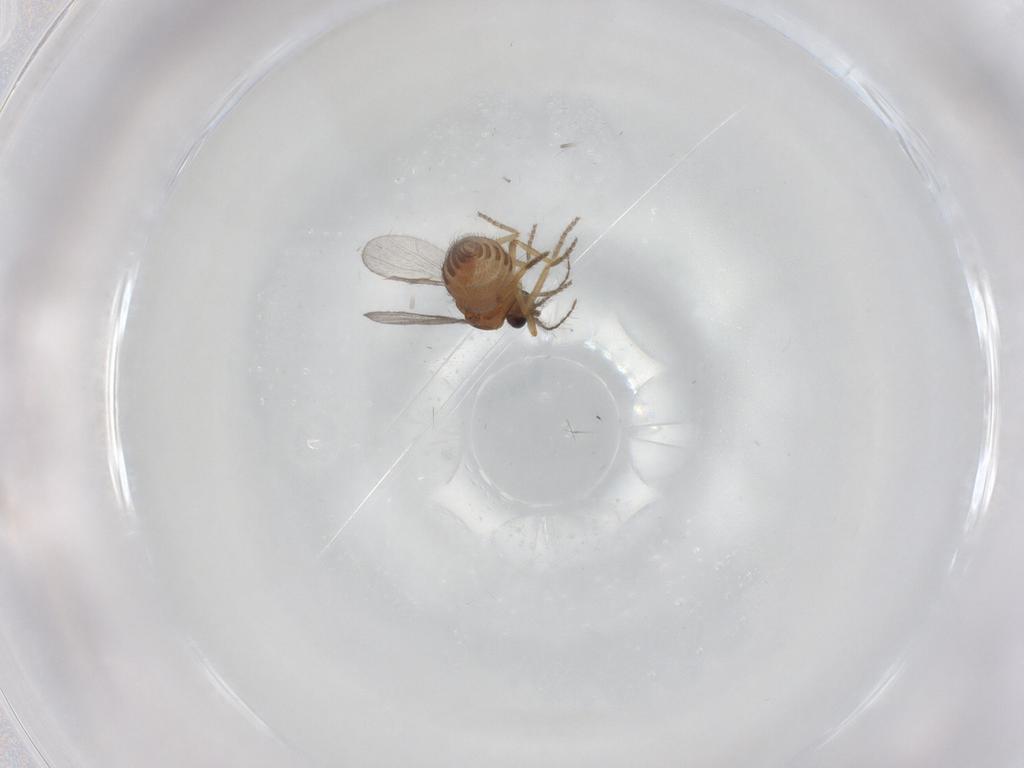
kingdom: Animalia
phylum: Arthropoda
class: Insecta
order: Diptera
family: Ceratopogonidae
